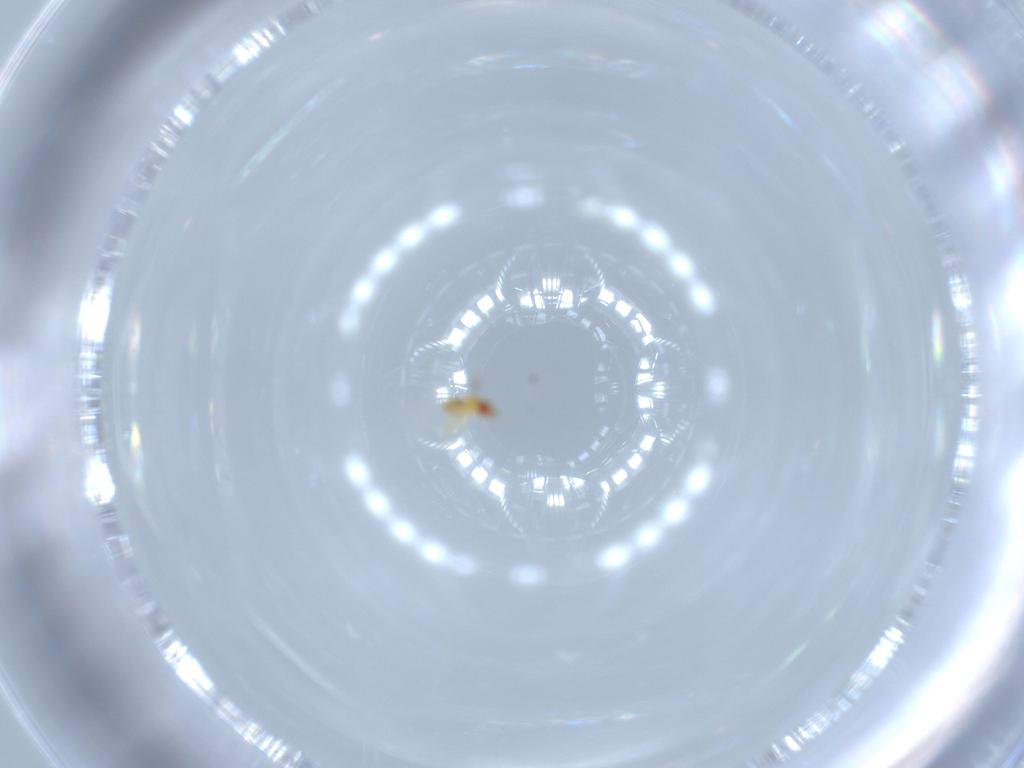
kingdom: Animalia
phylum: Arthropoda
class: Insecta
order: Hymenoptera
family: Trichogrammatidae
